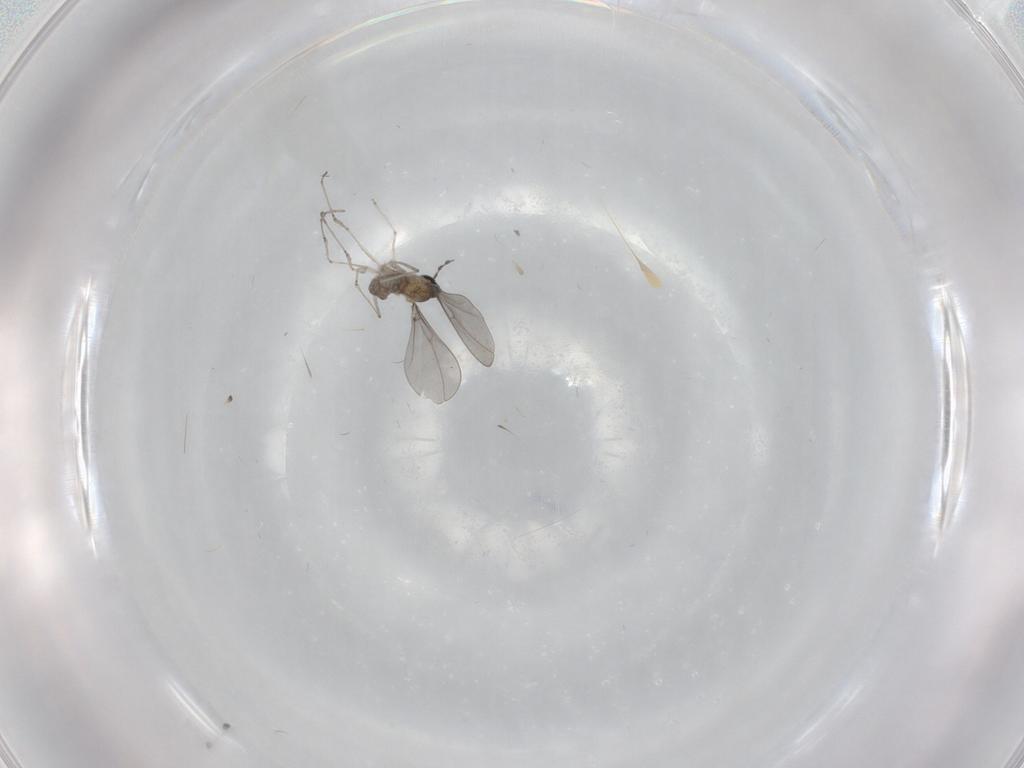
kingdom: Animalia
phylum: Arthropoda
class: Insecta
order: Diptera
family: Cecidomyiidae
